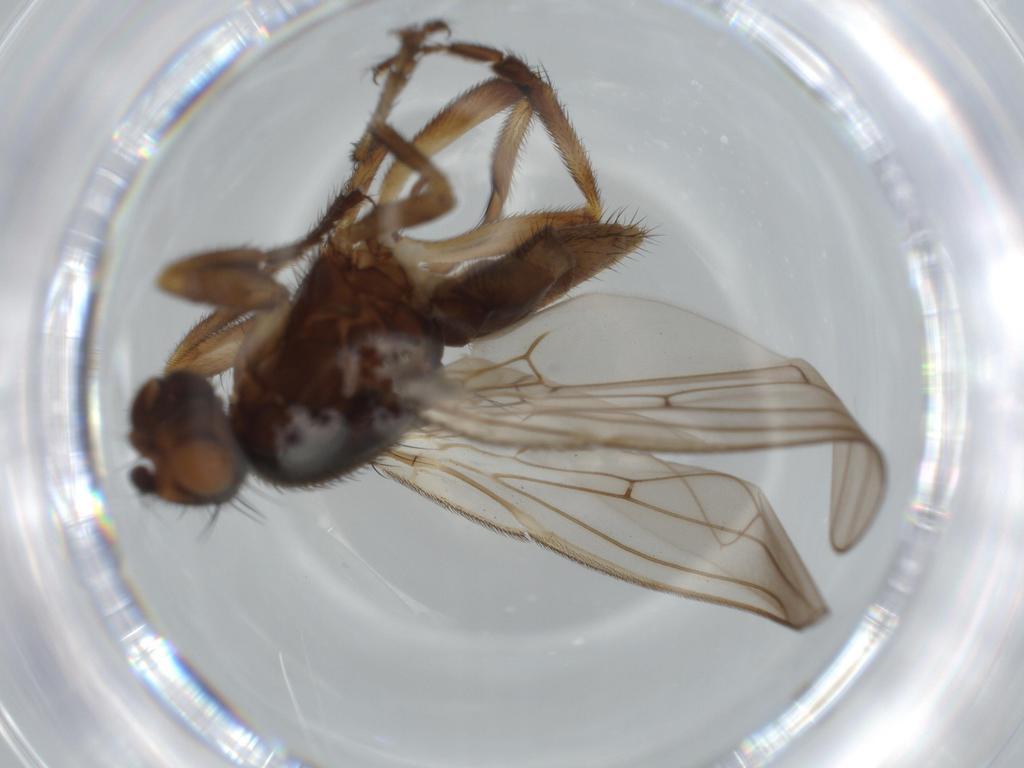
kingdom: Animalia
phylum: Arthropoda
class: Insecta
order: Diptera
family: Sphaeroceridae
